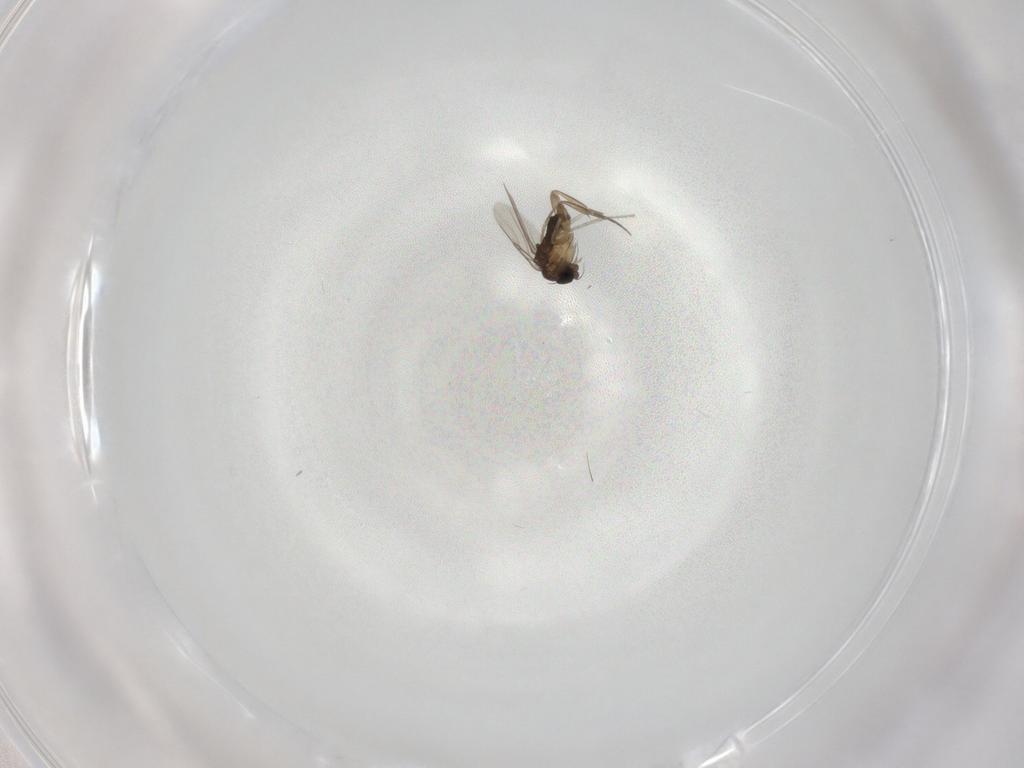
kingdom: Animalia
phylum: Arthropoda
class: Insecta
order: Diptera
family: Phoridae
